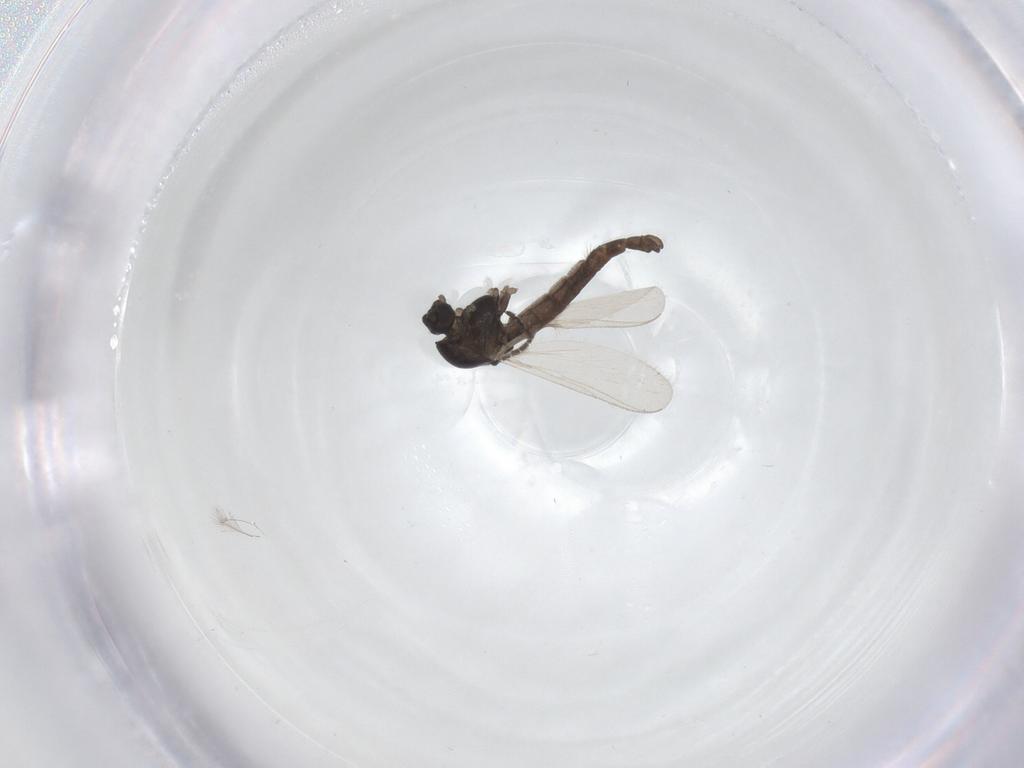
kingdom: Animalia
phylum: Arthropoda
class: Insecta
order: Diptera
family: Chironomidae
